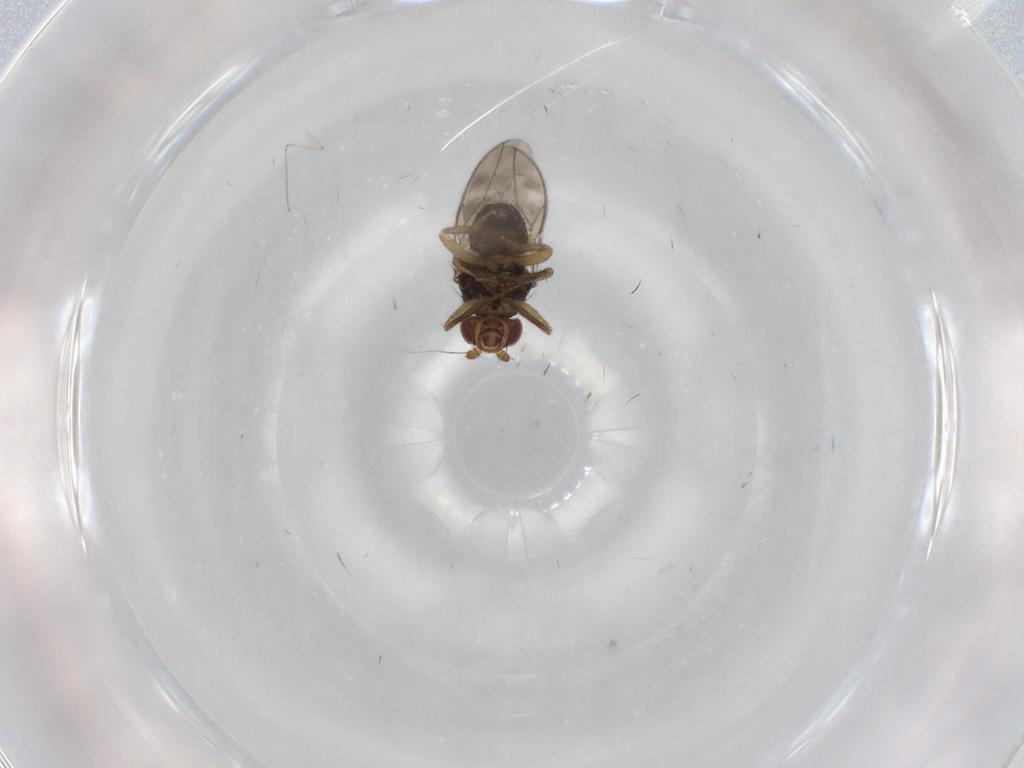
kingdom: Animalia
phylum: Arthropoda
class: Insecta
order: Diptera
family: Sphaeroceridae
